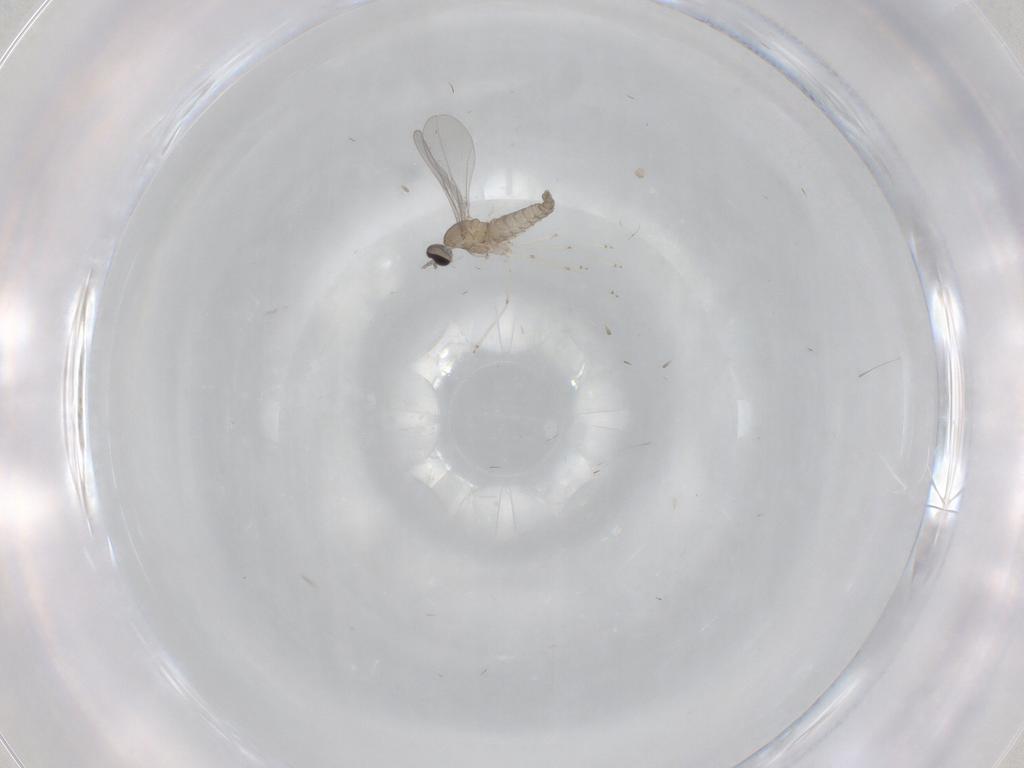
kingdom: Animalia
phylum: Arthropoda
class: Insecta
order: Diptera
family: Cecidomyiidae
